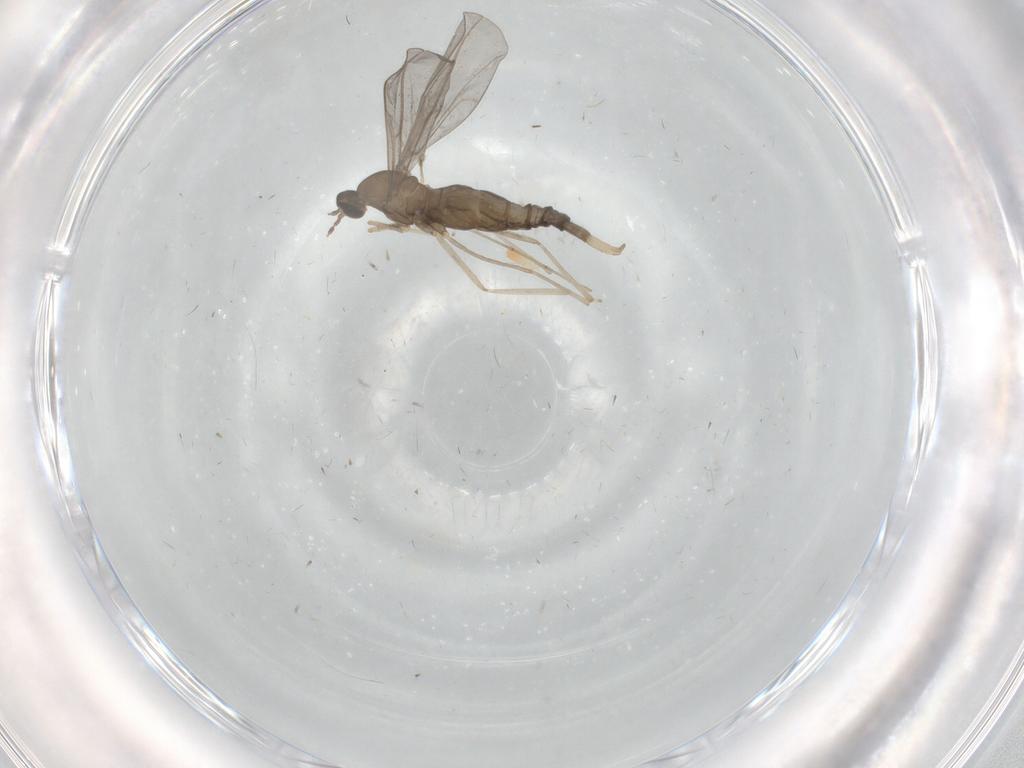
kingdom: Animalia
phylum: Arthropoda
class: Insecta
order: Diptera
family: Cecidomyiidae
